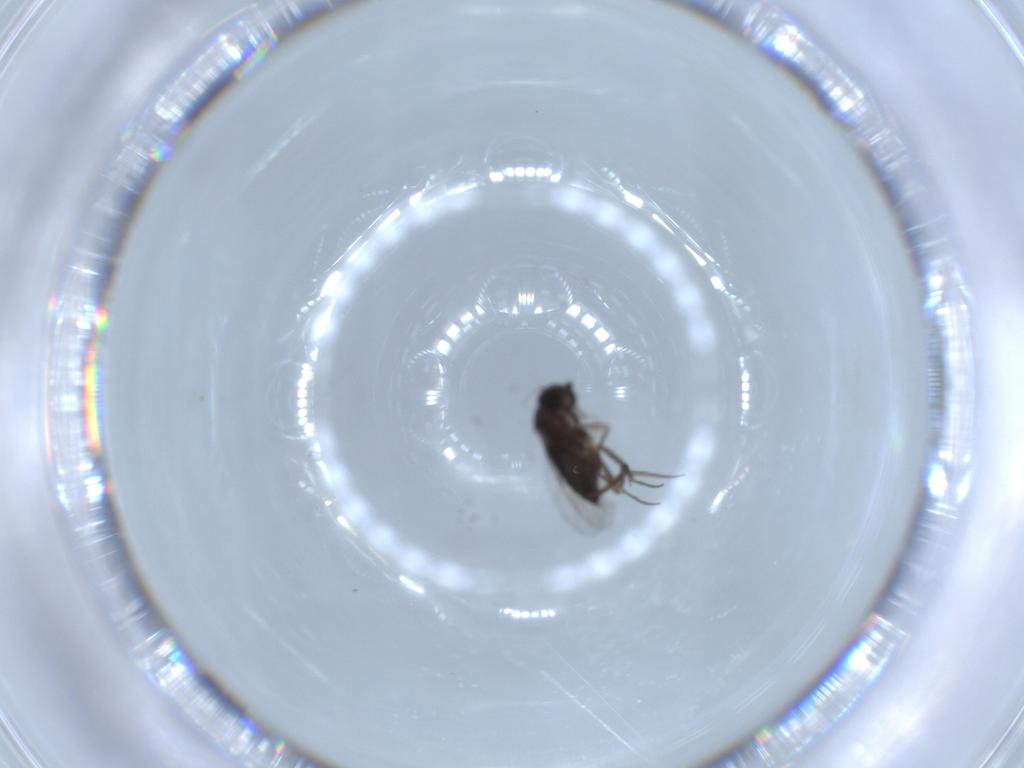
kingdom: Animalia
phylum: Arthropoda
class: Insecta
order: Diptera
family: Phoridae
